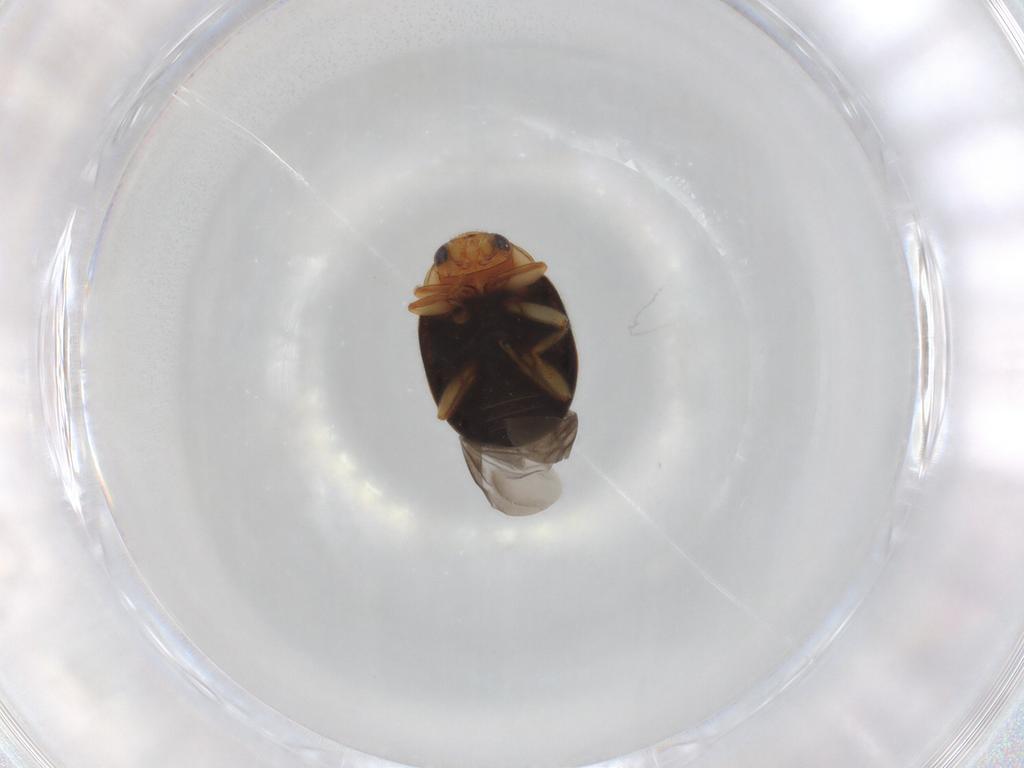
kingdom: Animalia
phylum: Arthropoda
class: Insecta
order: Coleoptera
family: Coccinellidae
